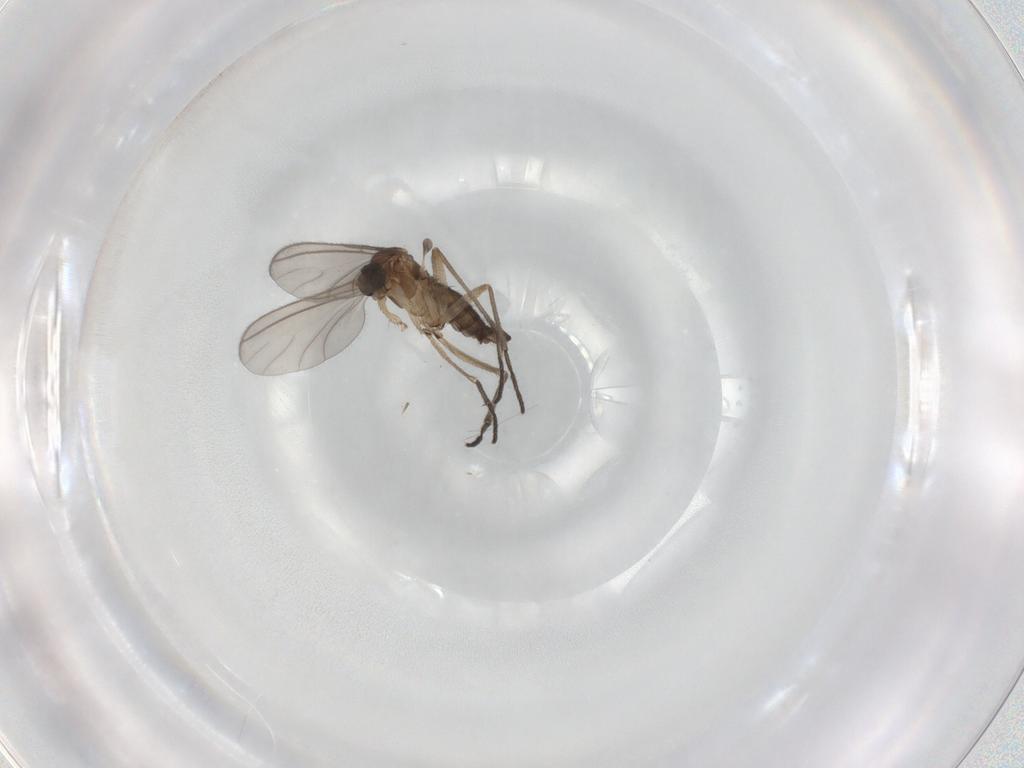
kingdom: Animalia
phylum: Arthropoda
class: Insecta
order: Diptera
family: Sciaridae
